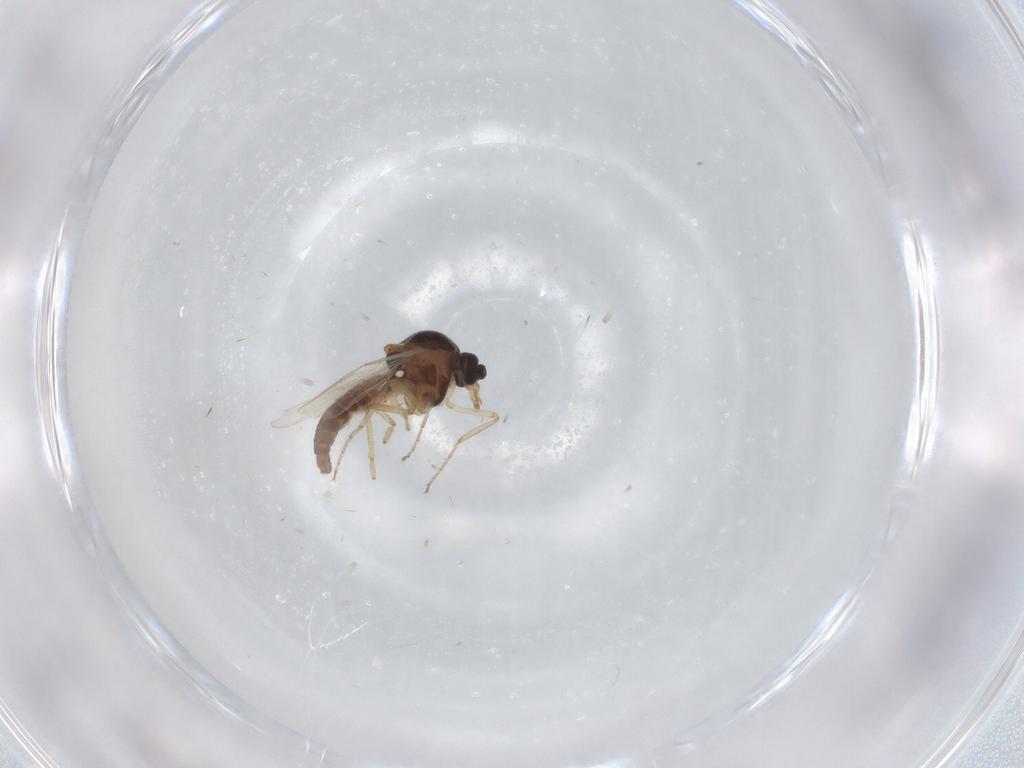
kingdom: Animalia
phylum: Arthropoda
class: Insecta
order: Diptera
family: Ceratopogonidae
